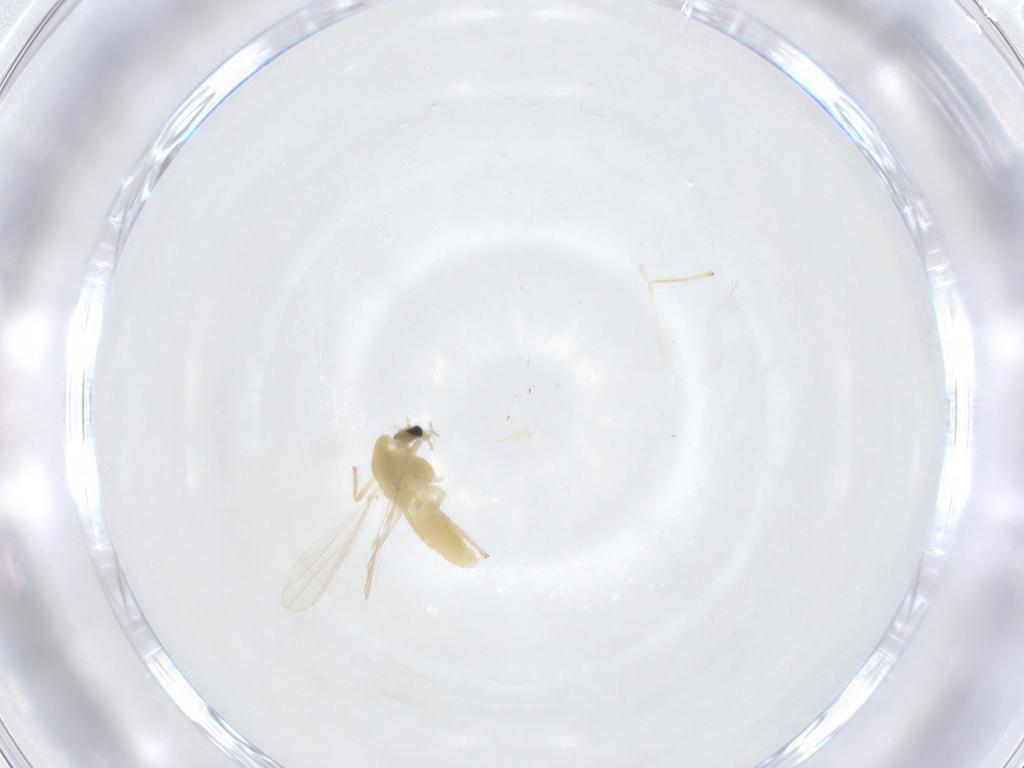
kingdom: Animalia
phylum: Arthropoda
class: Insecta
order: Diptera
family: Chironomidae
